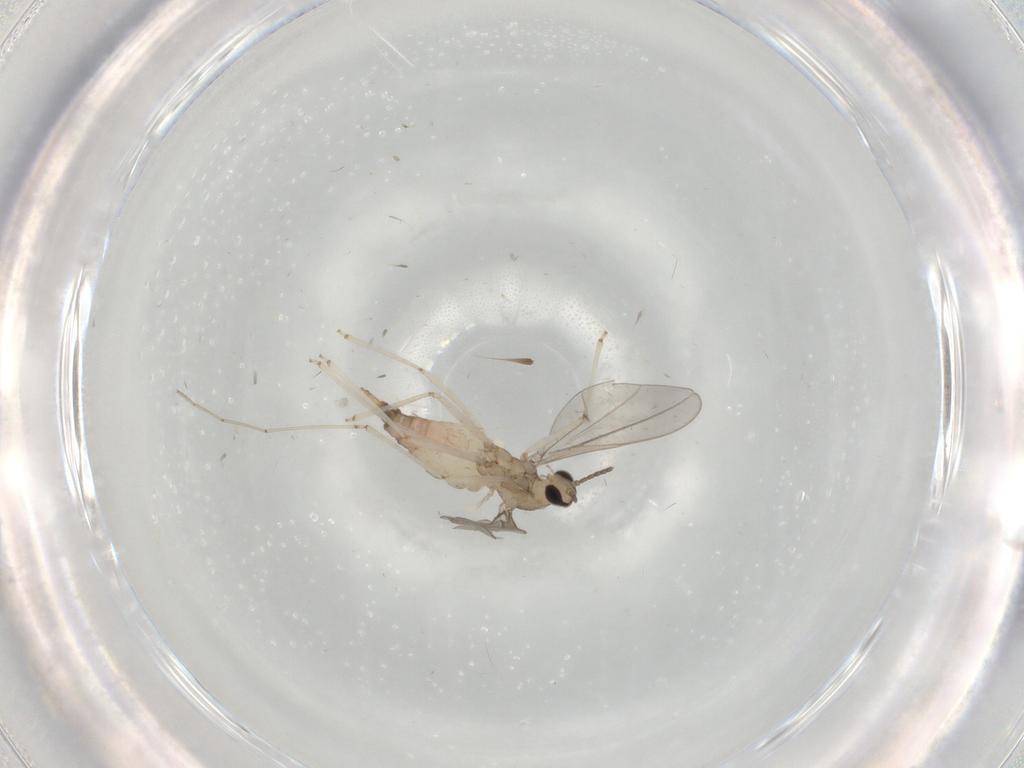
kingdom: Animalia
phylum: Arthropoda
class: Insecta
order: Diptera
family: Cecidomyiidae
